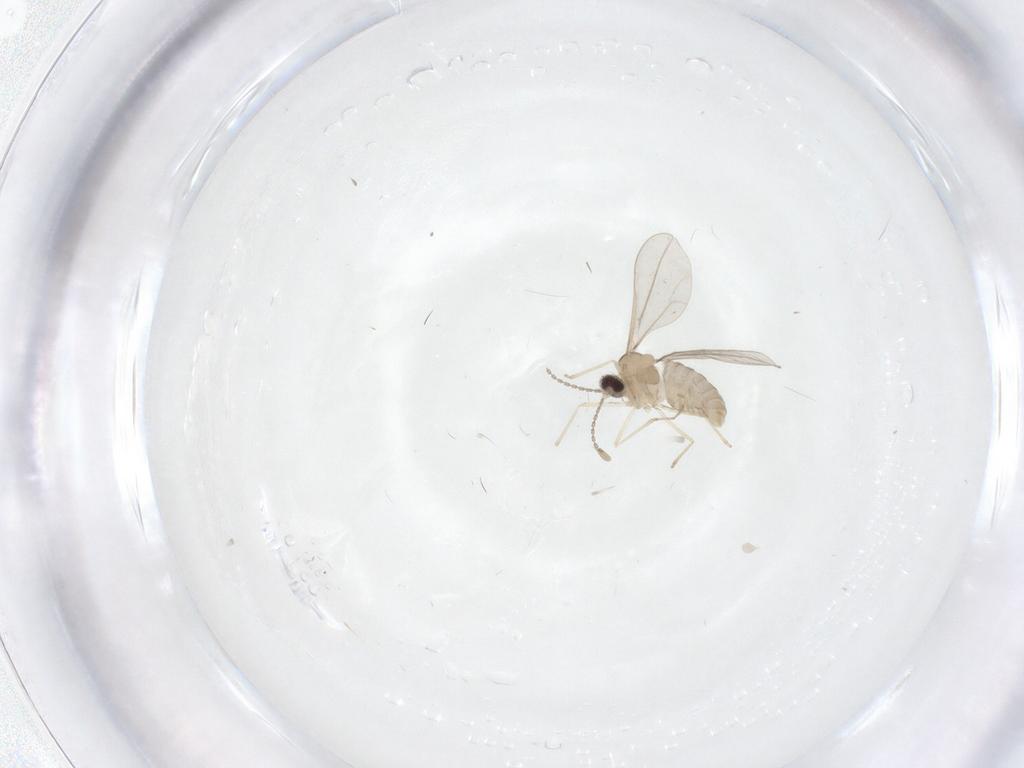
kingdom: Animalia
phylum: Arthropoda
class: Insecta
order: Diptera
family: Cecidomyiidae
